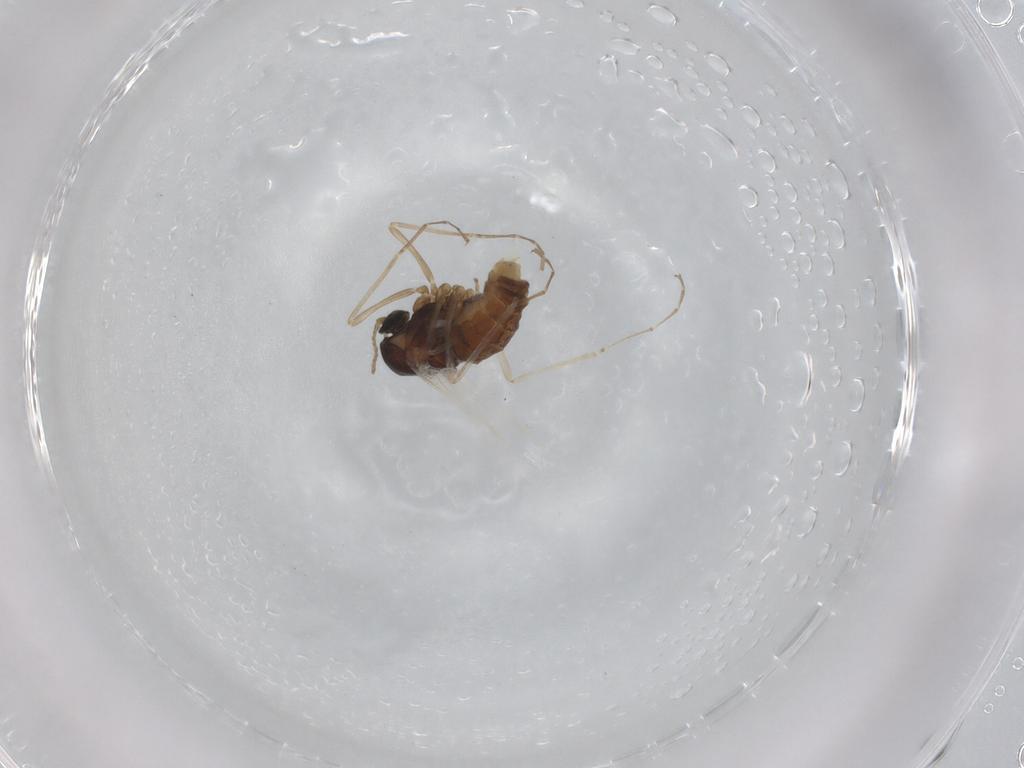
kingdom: Animalia
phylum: Arthropoda
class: Insecta
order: Diptera
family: Cecidomyiidae
